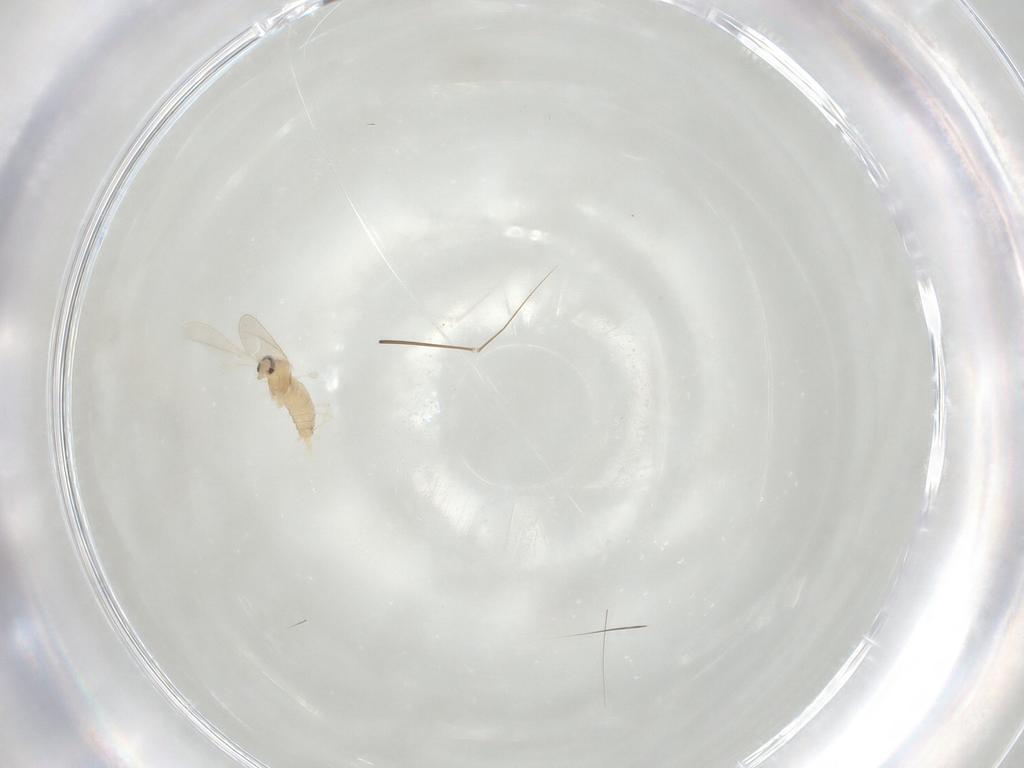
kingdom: Animalia
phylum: Arthropoda
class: Insecta
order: Diptera
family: Cecidomyiidae
